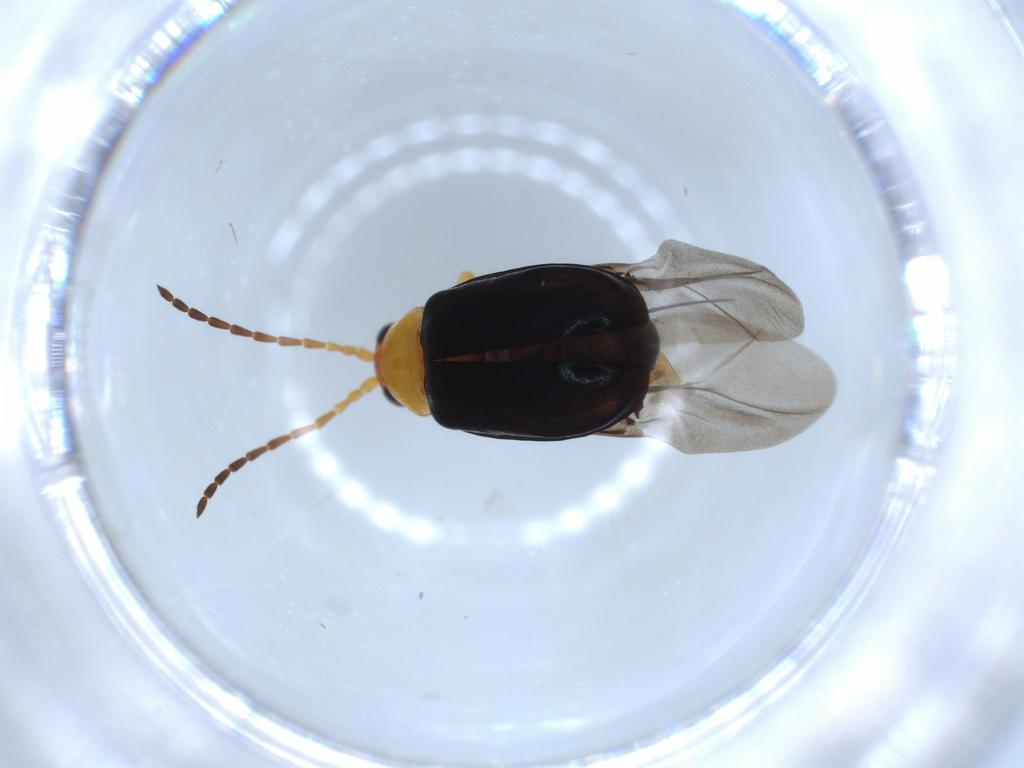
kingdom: Animalia
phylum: Arthropoda
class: Insecta
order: Coleoptera
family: Chrysomelidae
